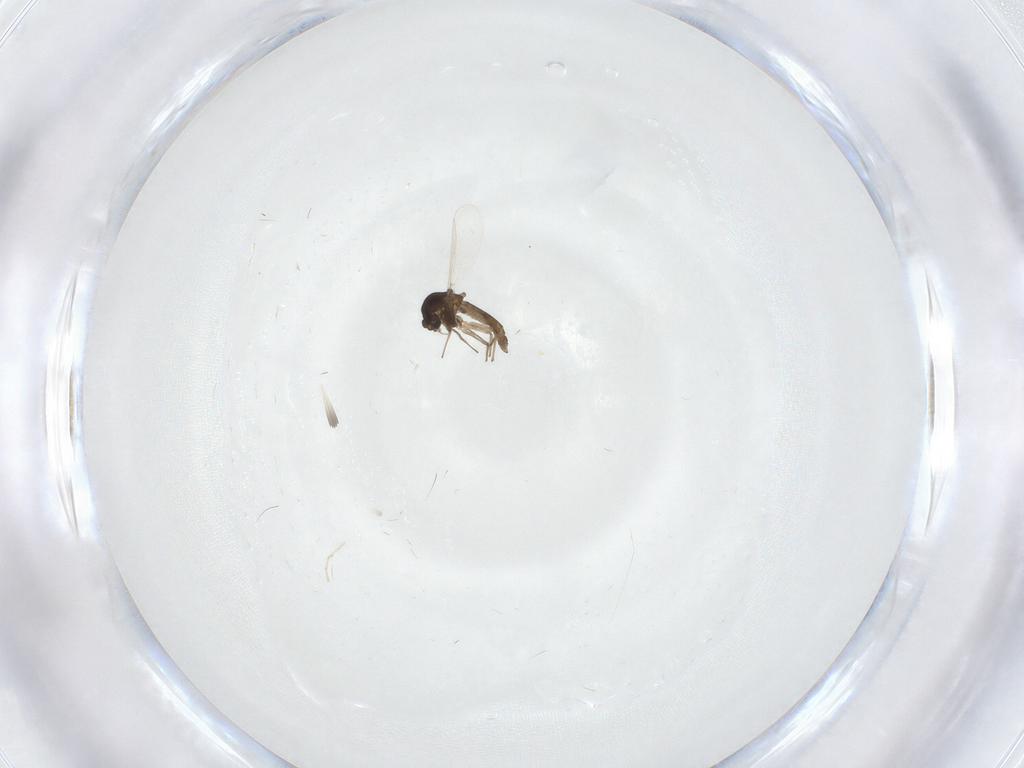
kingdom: Animalia
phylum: Arthropoda
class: Insecta
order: Diptera
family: Chironomidae
